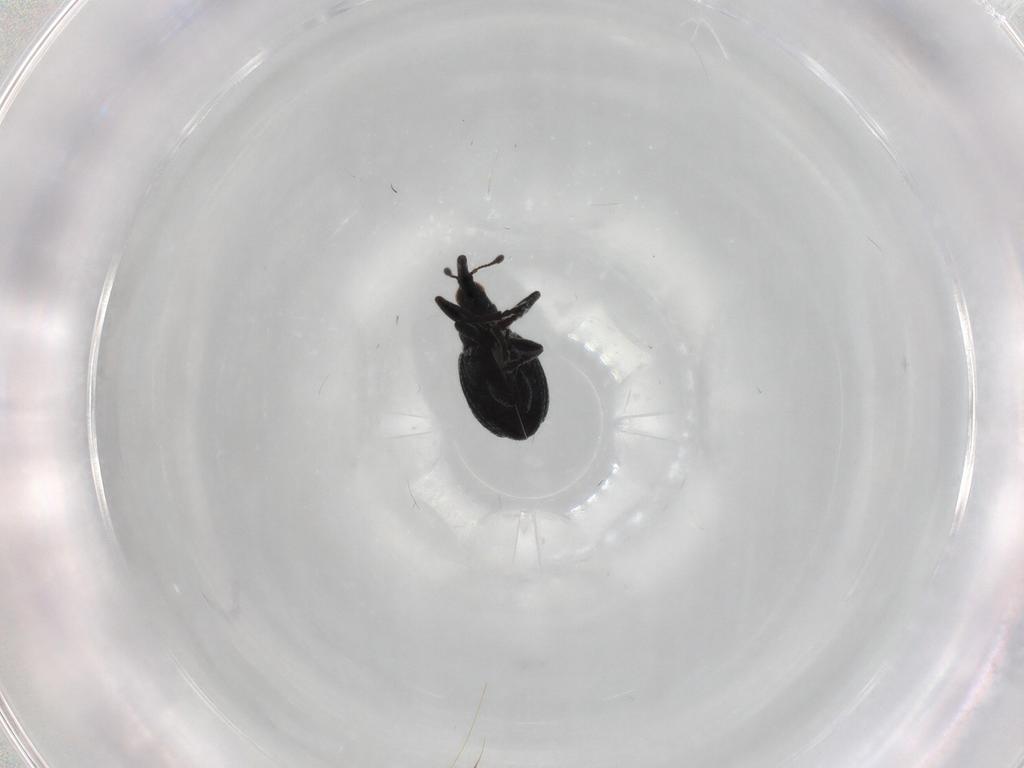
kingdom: Animalia
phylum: Arthropoda
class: Insecta
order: Coleoptera
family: Brentidae
